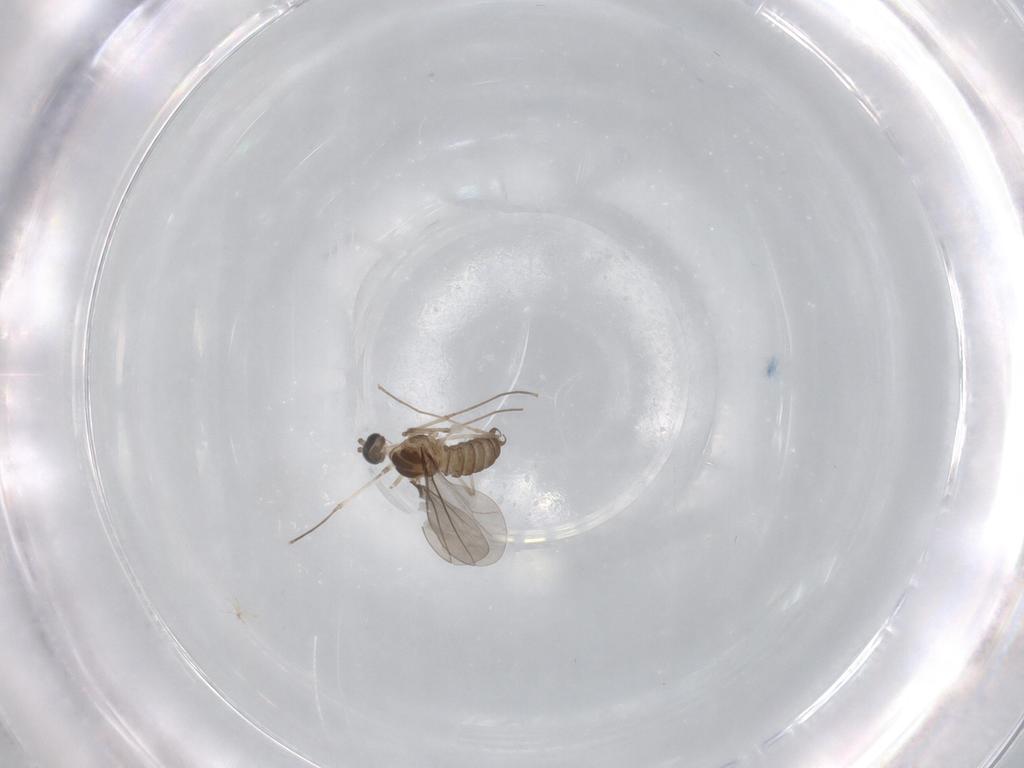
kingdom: Animalia
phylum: Arthropoda
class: Insecta
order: Diptera
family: Cecidomyiidae
